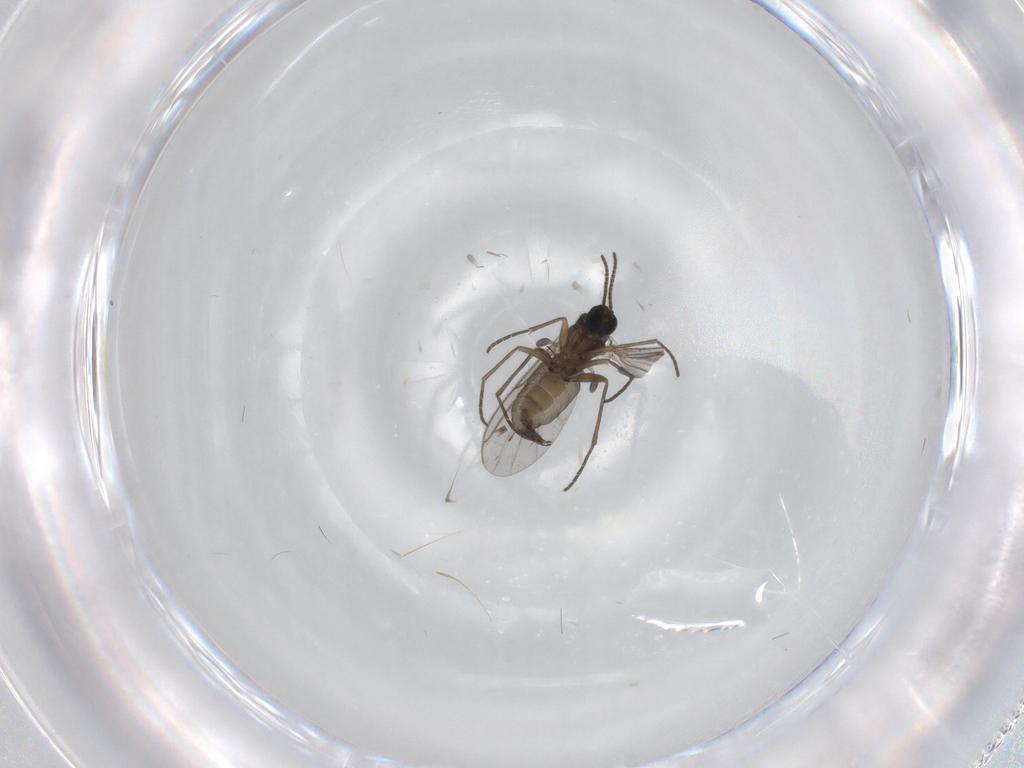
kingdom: Animalia
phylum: Arthropoda
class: Insecta
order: Diptera
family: Sciaridae
